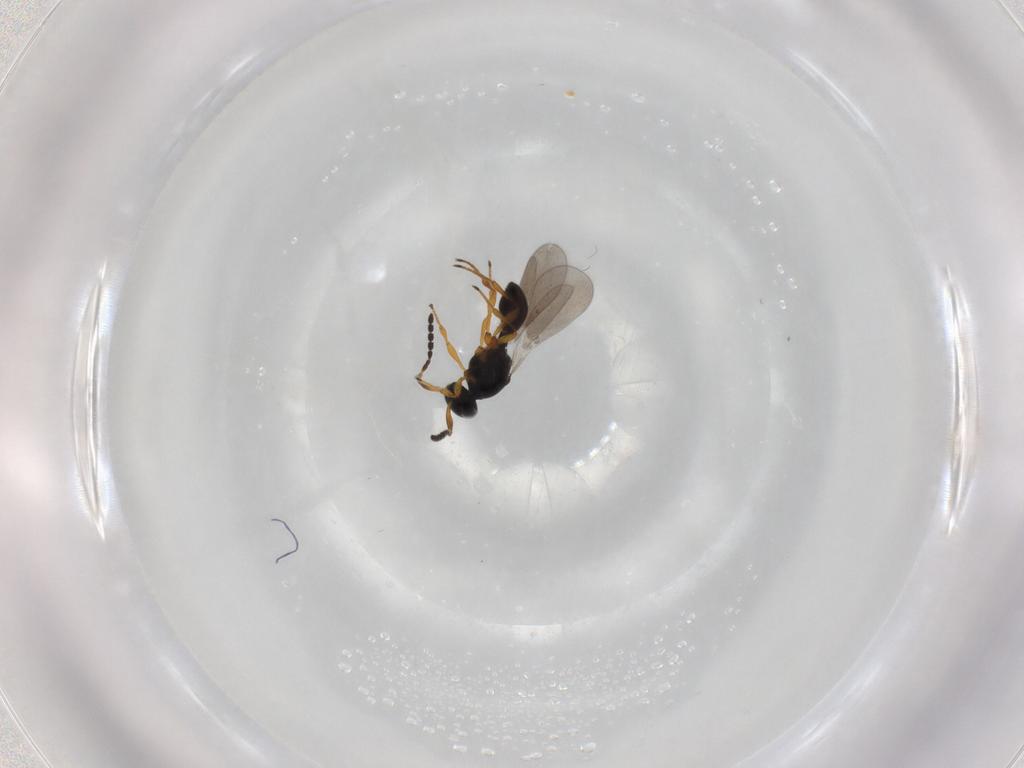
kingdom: Animalia
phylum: Arthropoda
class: Insecta
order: Hymenoptera
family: Platygastridae
